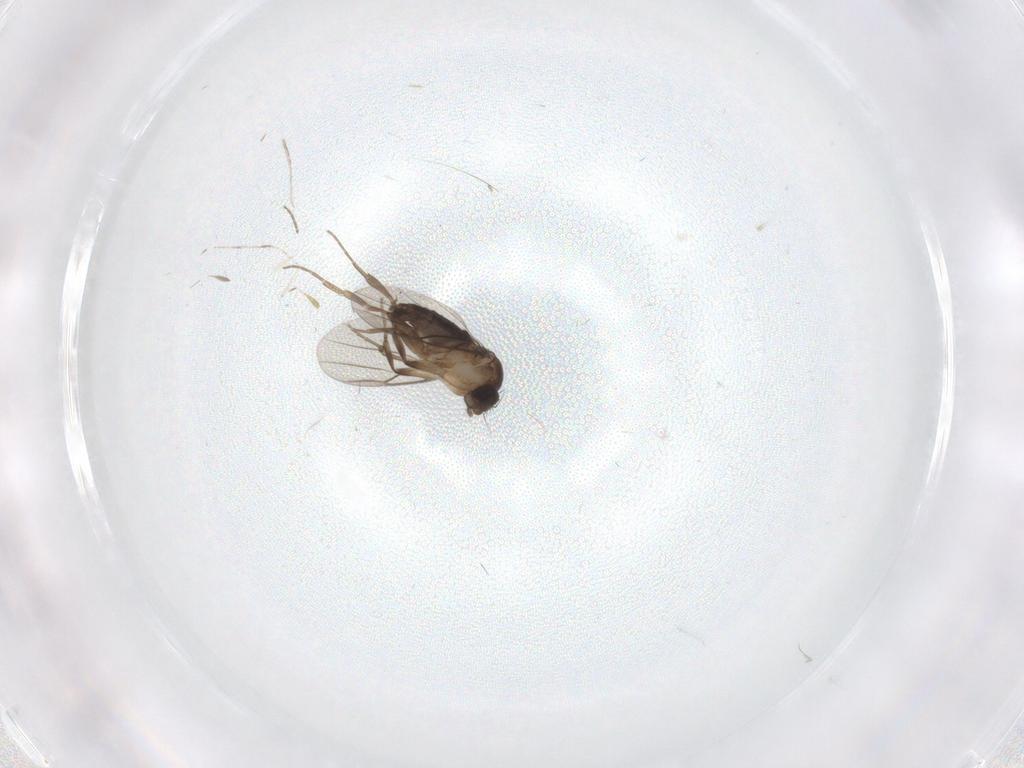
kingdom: Animalia
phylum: Arthropoda
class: Insecta
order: Diptera
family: Phoridae
